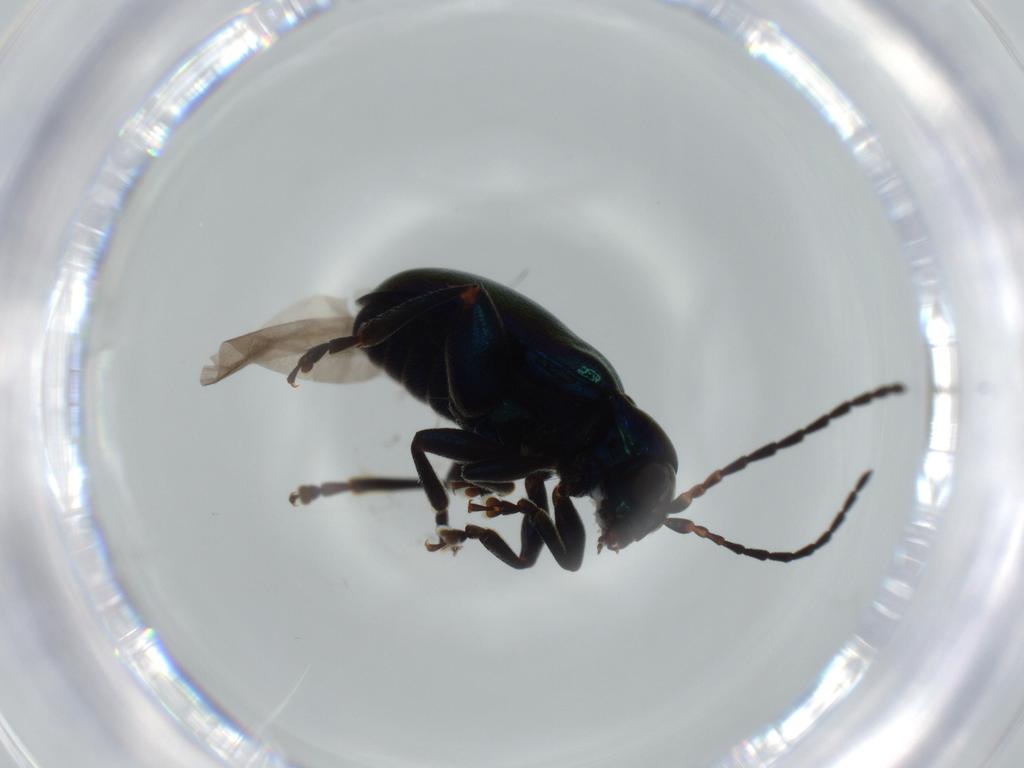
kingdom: Animalia
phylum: Arthropoda
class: Insecta
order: Coleoptera
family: Chrysomelidae
